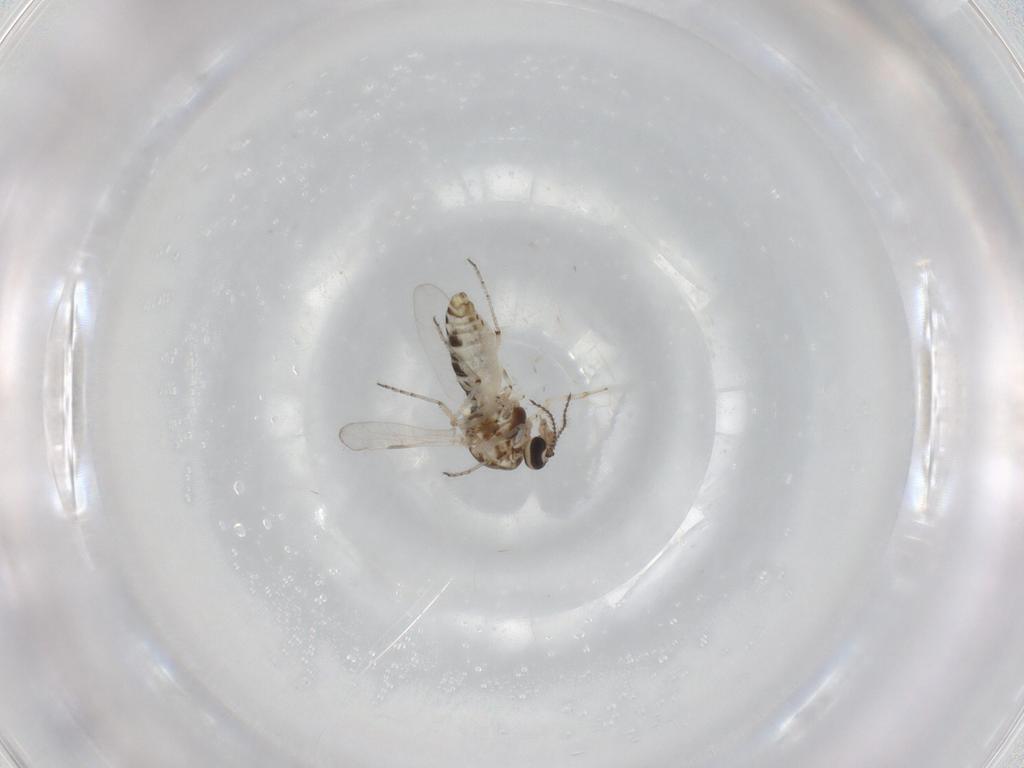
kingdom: Animalia
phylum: Arthropoda
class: Insecta
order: Diptera
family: Ceratopogonidae
